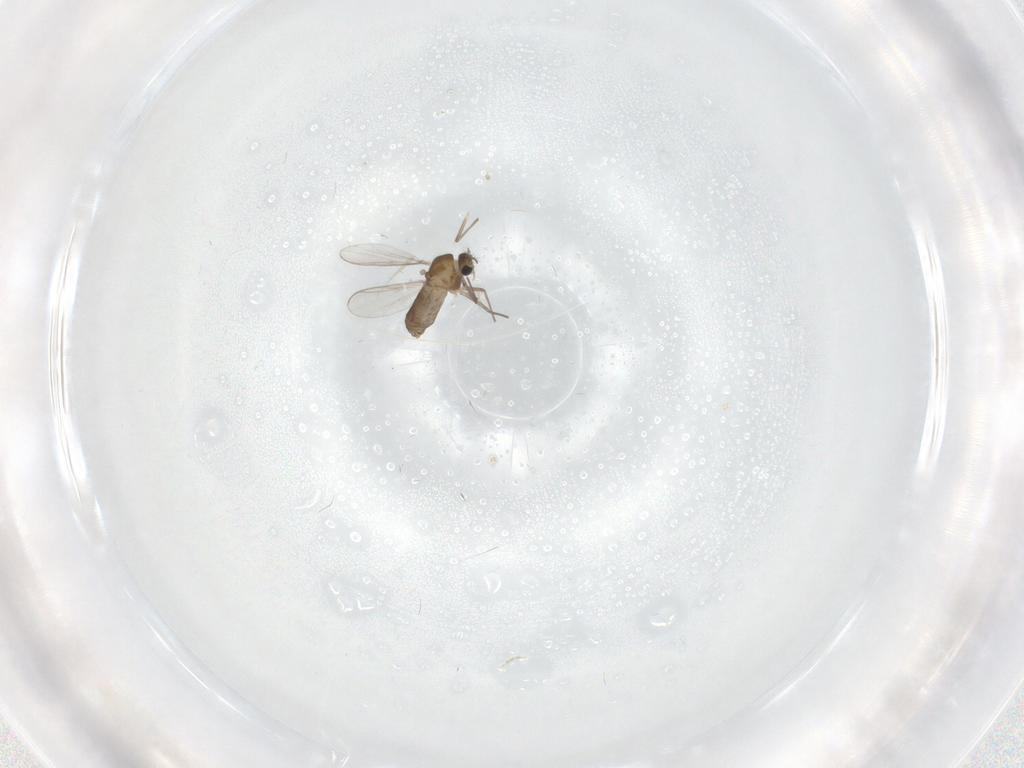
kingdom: Animalia
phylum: Arthropoda
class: Insecta
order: Diptera
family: Chironomidae
